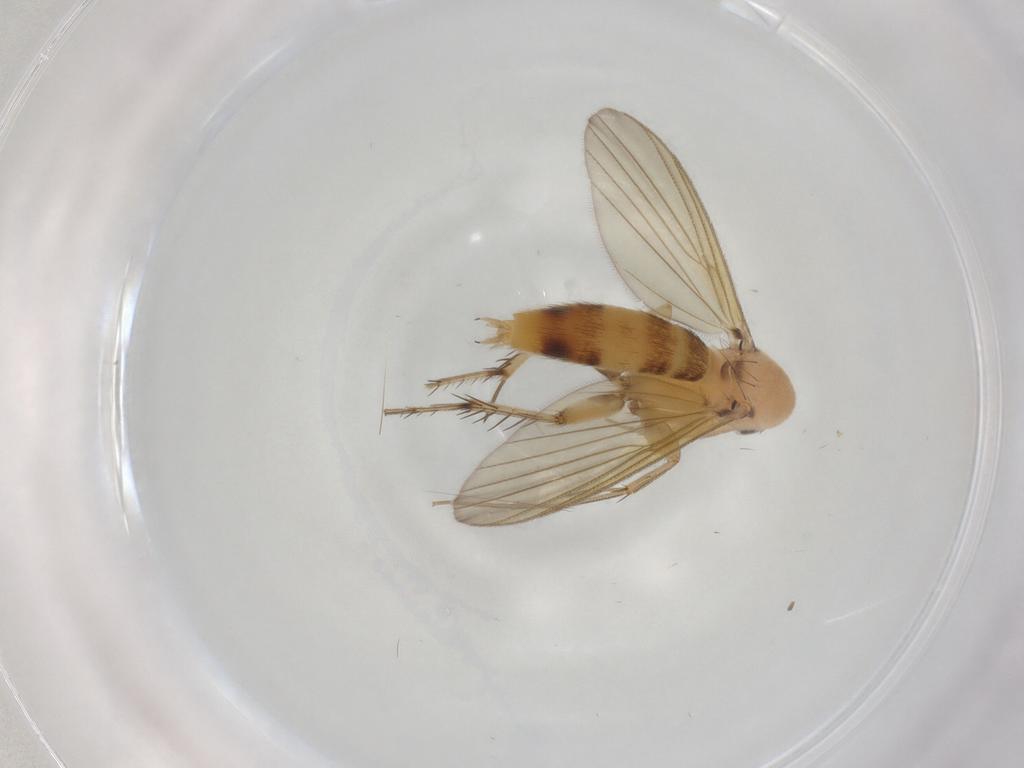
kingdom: Animalia
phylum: Arthropoda
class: Insecta
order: Diptera
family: Mycetophilidae
